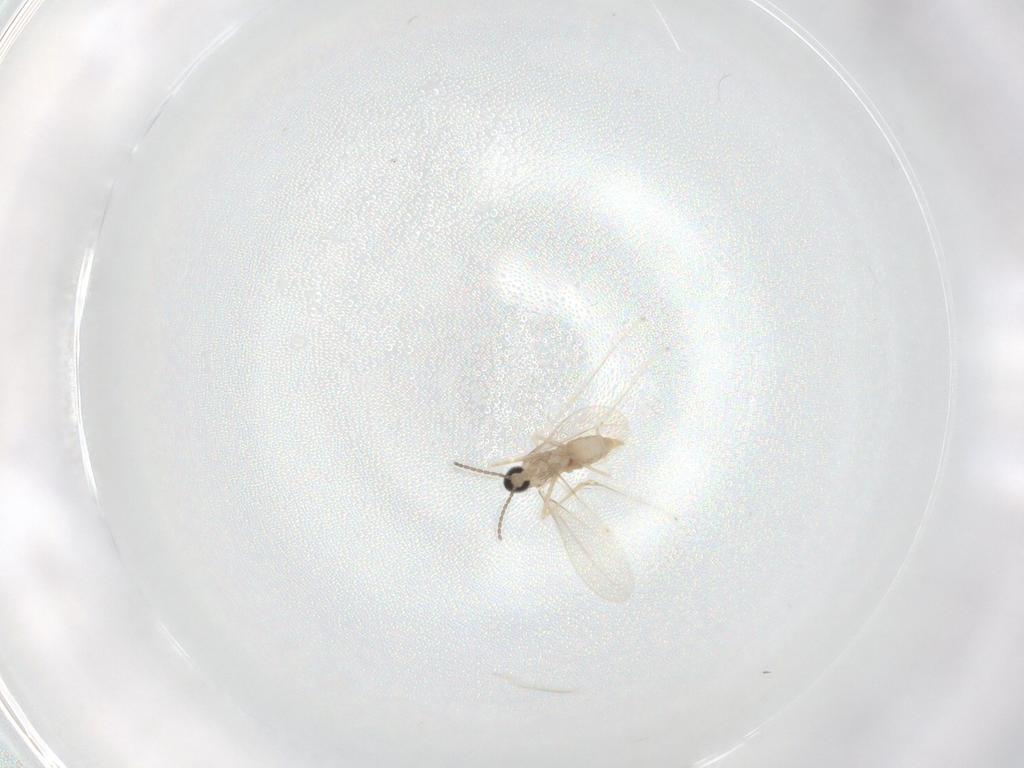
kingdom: Animalia
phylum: Arthropoda
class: Insecta
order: Diptera
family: Cecidomyiidae
